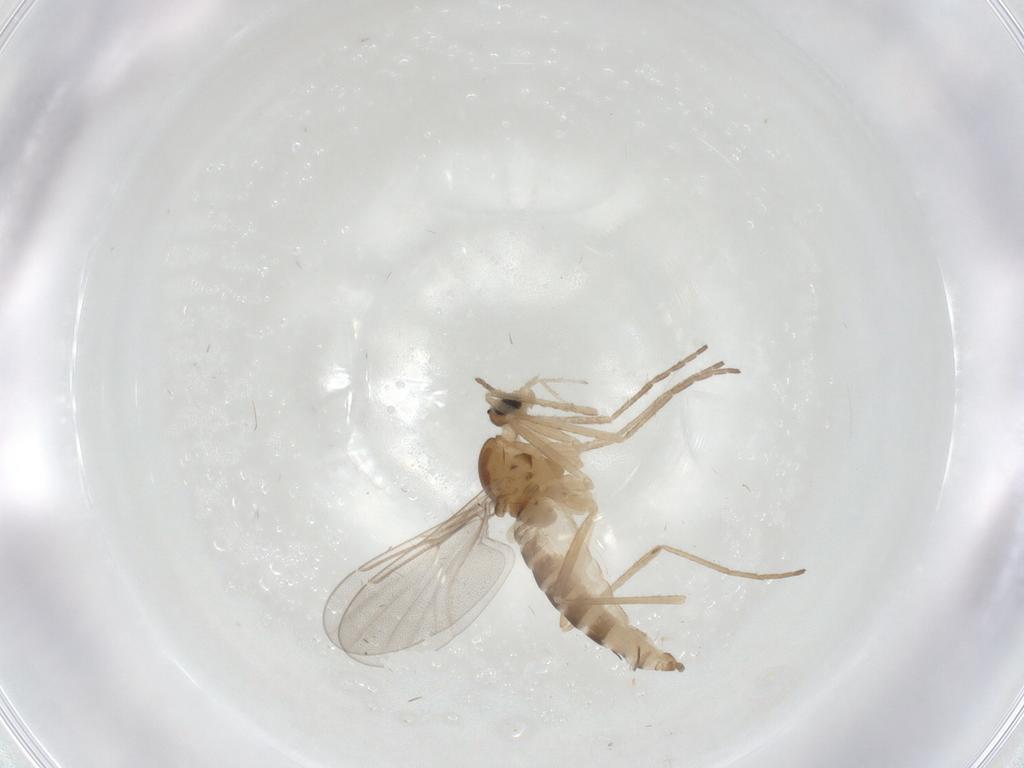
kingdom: Animalia
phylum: Arthropoda
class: Insecta
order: Diptera
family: Cecidomyiidae
